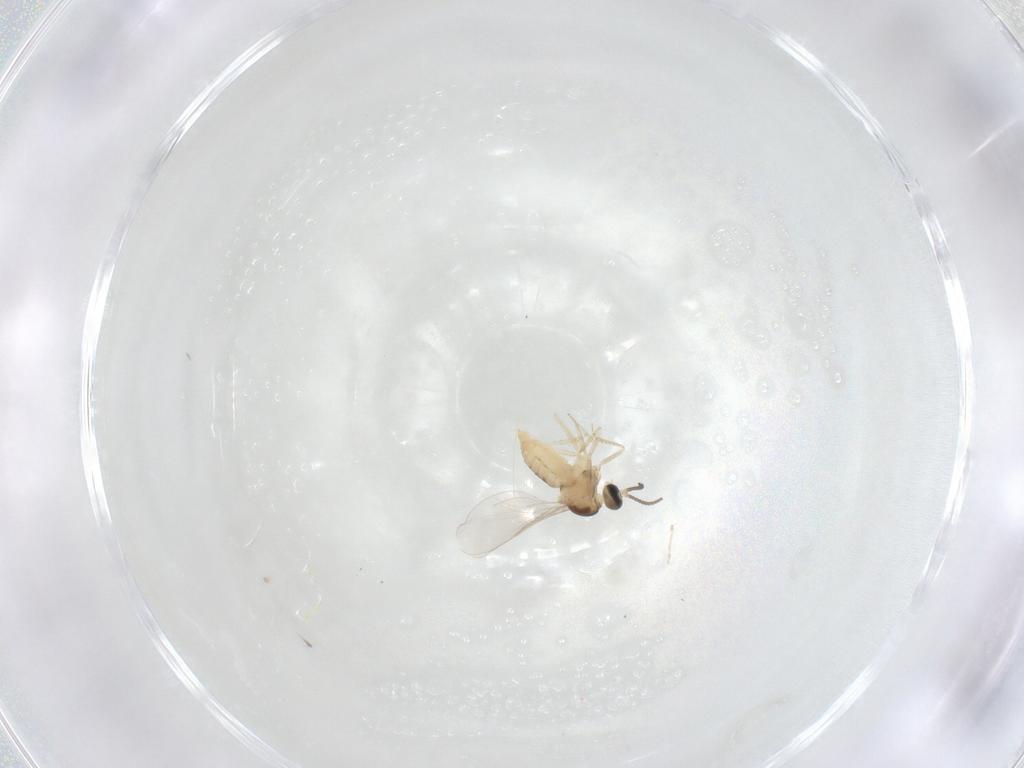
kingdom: Animalia
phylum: Arthropoda
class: Insecta
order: Diptera
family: Cecidomyiidae
